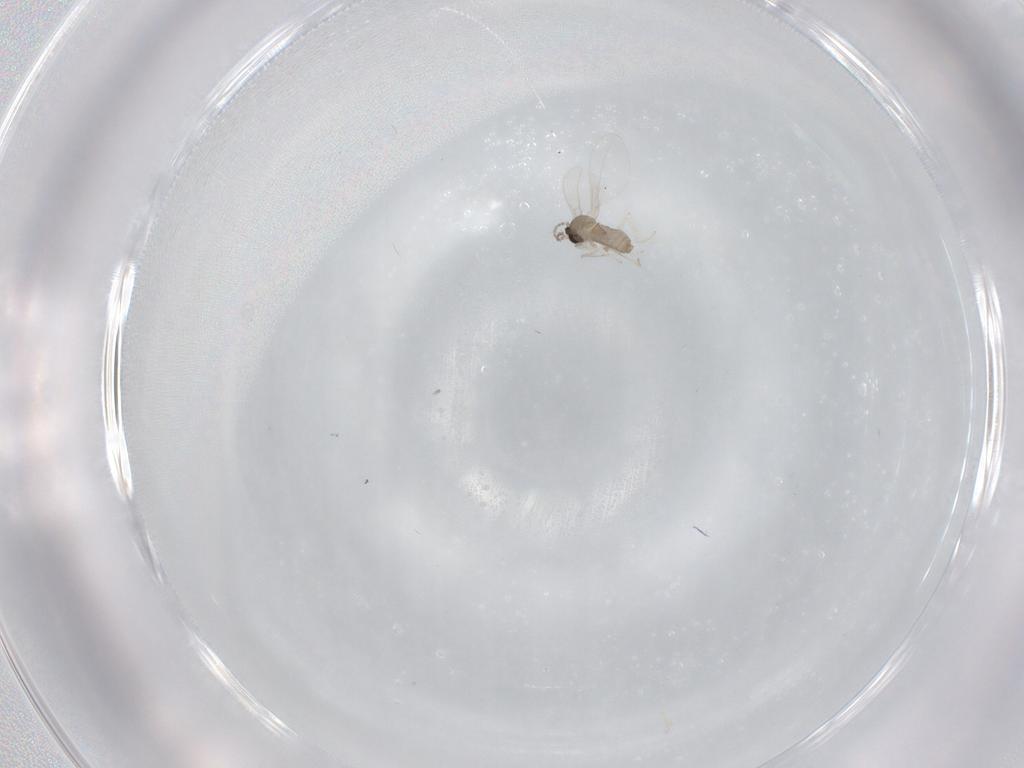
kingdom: Animalia
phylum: Arthropoda
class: Insecta
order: Diptera
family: Cecidomyiidae
